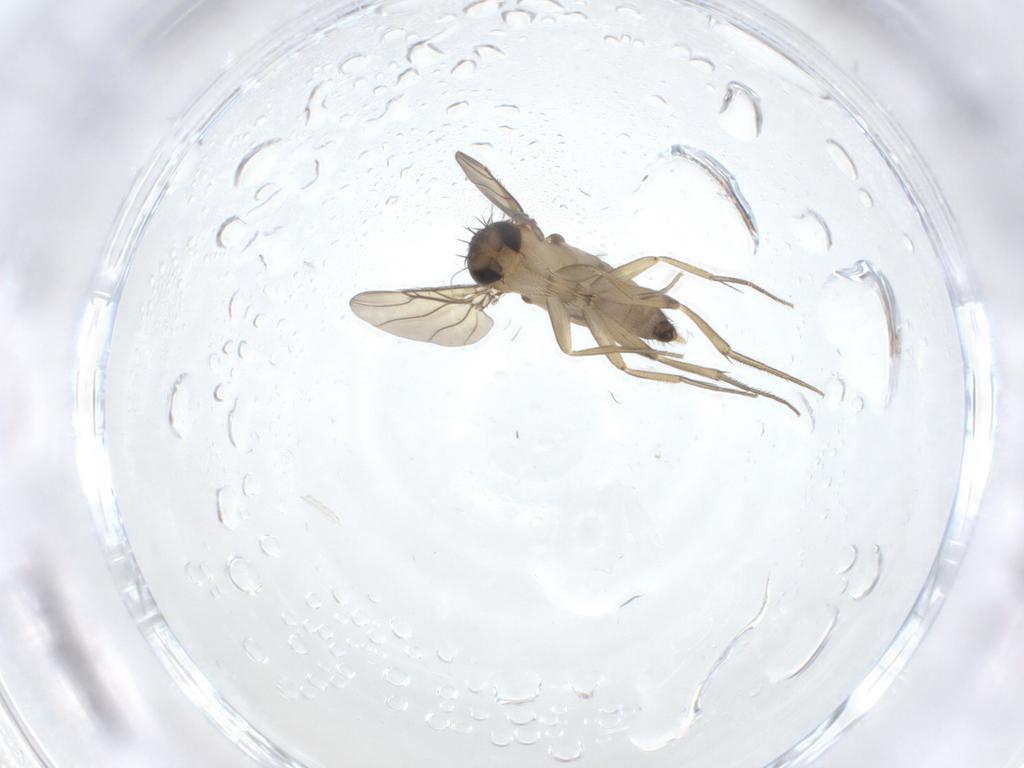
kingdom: Animalia
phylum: Arthropoda
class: Insecta
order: Diptera
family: Phoridae
